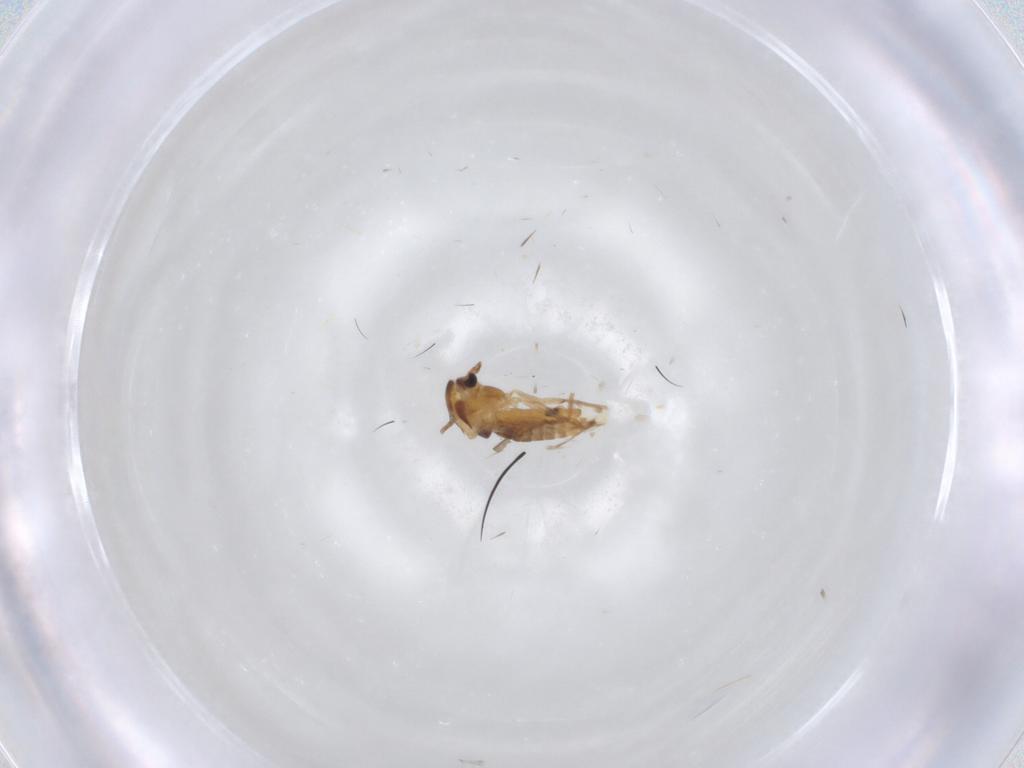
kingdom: Animalia
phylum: Arthropoda
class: Insecta
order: Diptera
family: Chironomidae
